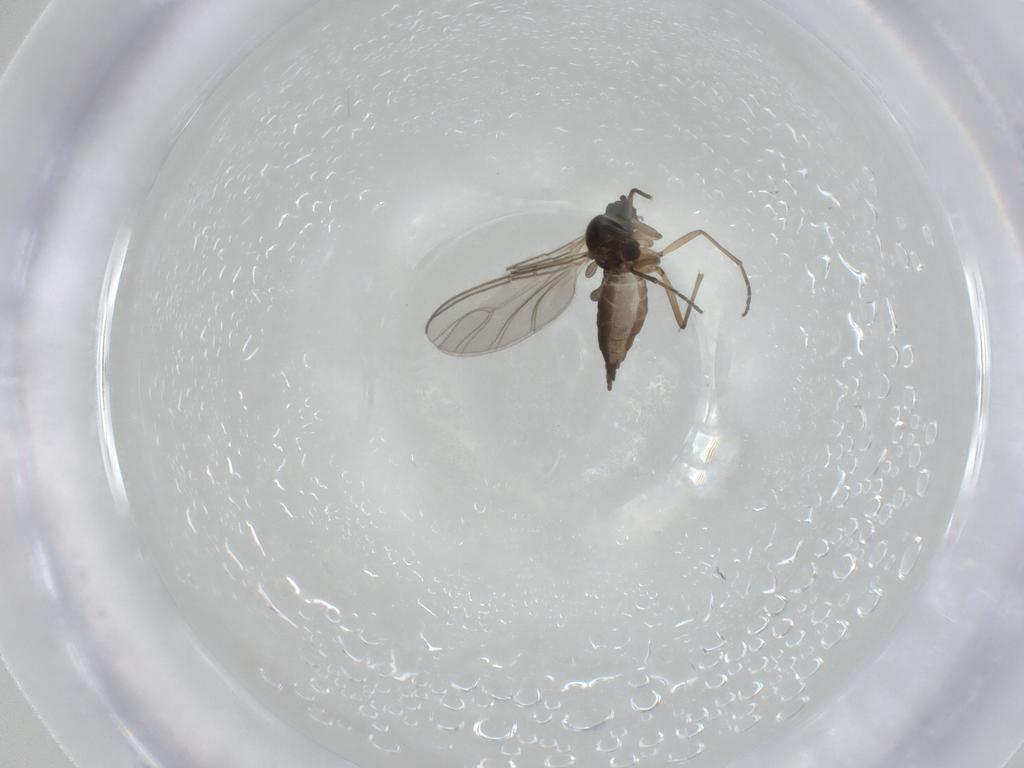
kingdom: Animalia
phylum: Arthropoda
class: Insecta
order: Diptera
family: Sciaridae
